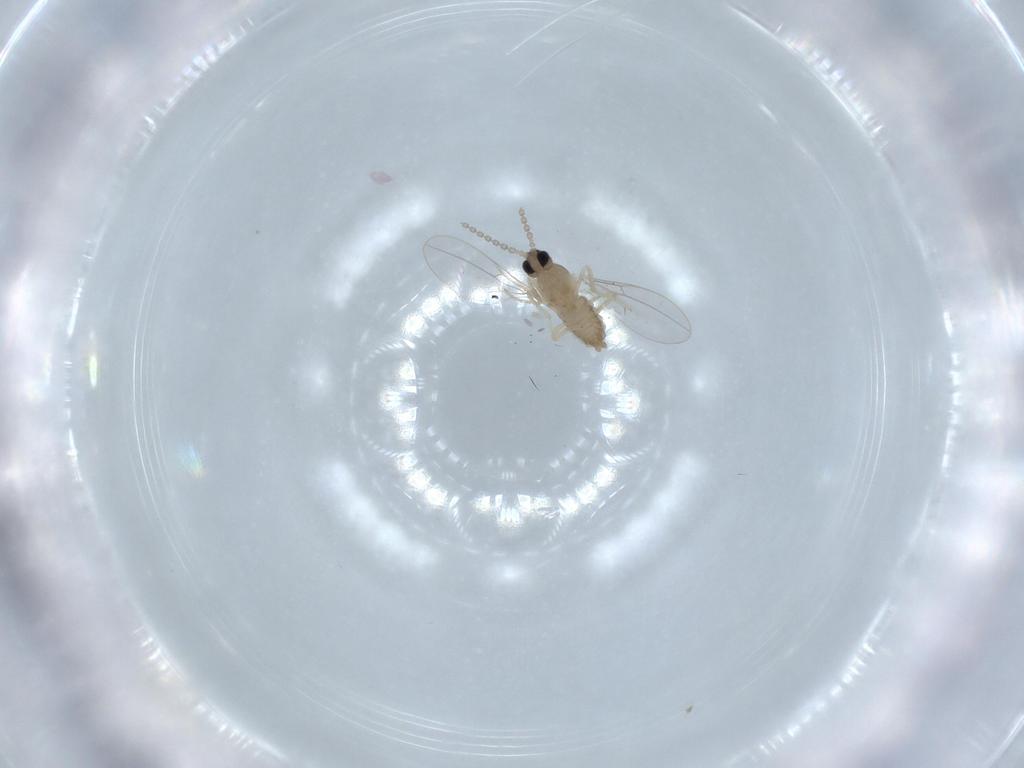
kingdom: Animalia
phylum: Arthropoda
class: Insecta
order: Diptera
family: Cecidomyiidae
